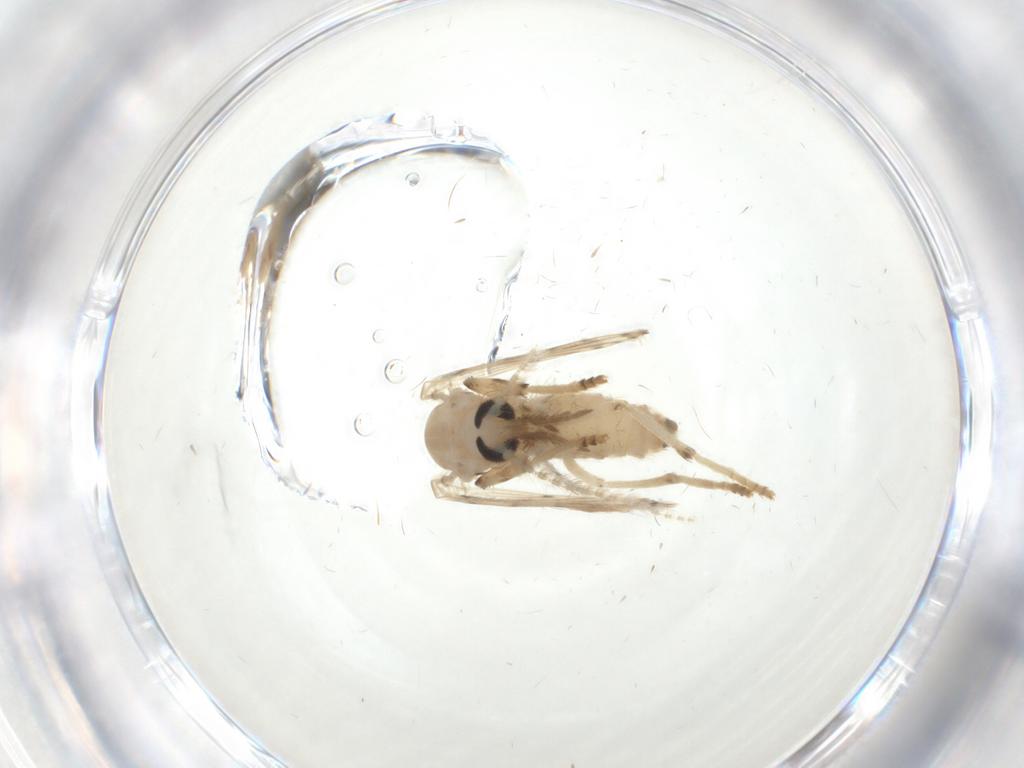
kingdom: Animalia
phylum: Arthropoda
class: Insecta
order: Diptera
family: Psychodidae
